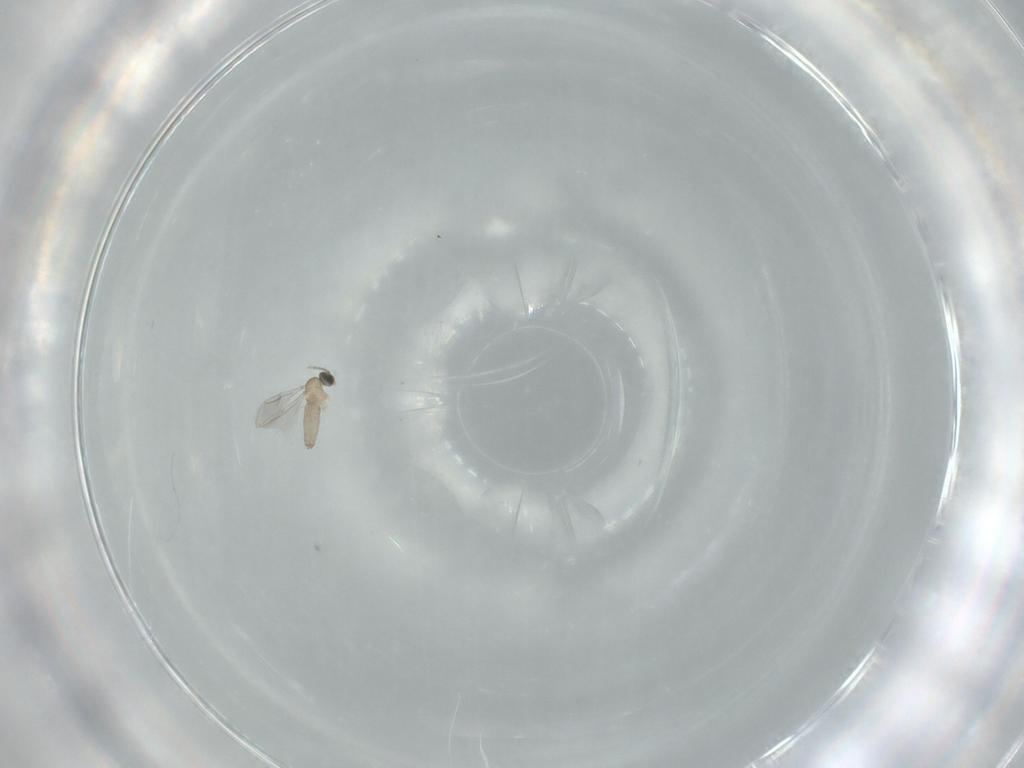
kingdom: Animalia
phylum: Arthropoda
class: Insecta
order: Diptera
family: Cecidomyiidae
